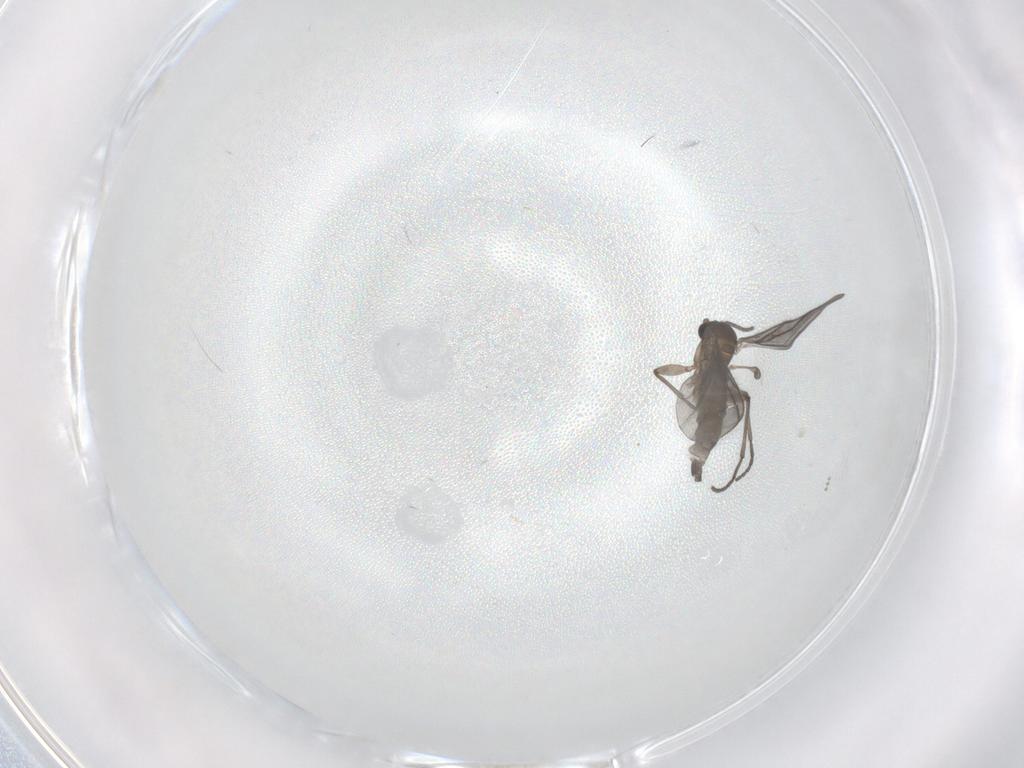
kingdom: Animalia
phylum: Arthropoda
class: Insecta
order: Diptera
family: Sciaridae
